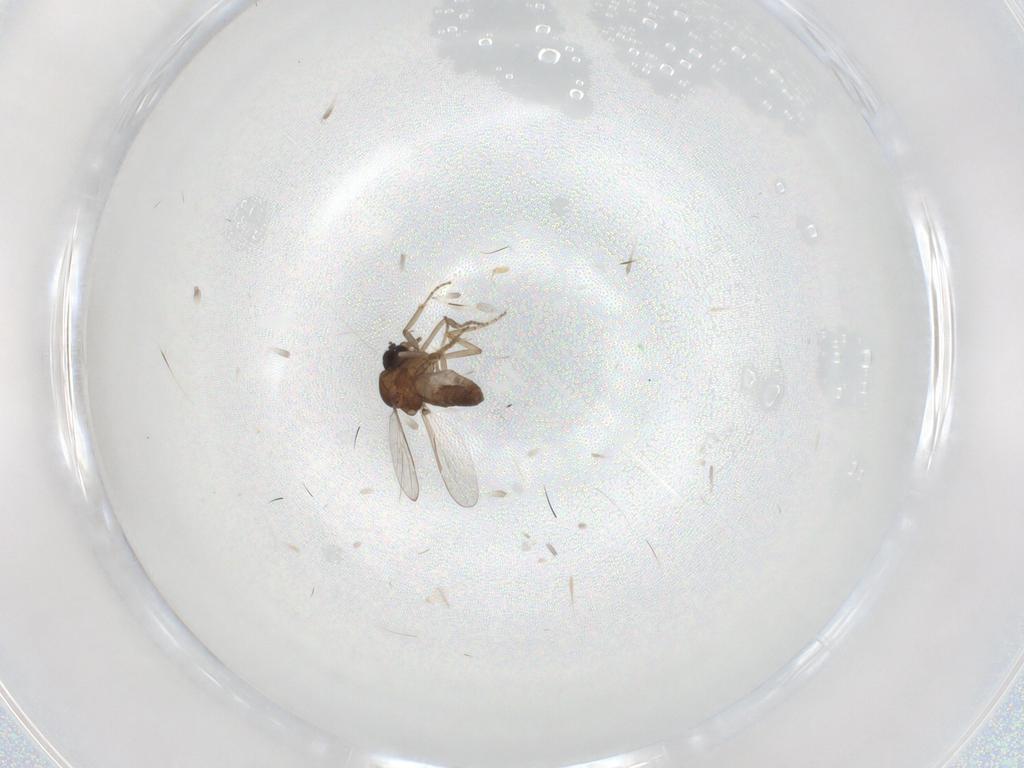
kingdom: Animalia
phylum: Arthropoda
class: Insecta
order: Diptera
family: Ceratopogonidae
